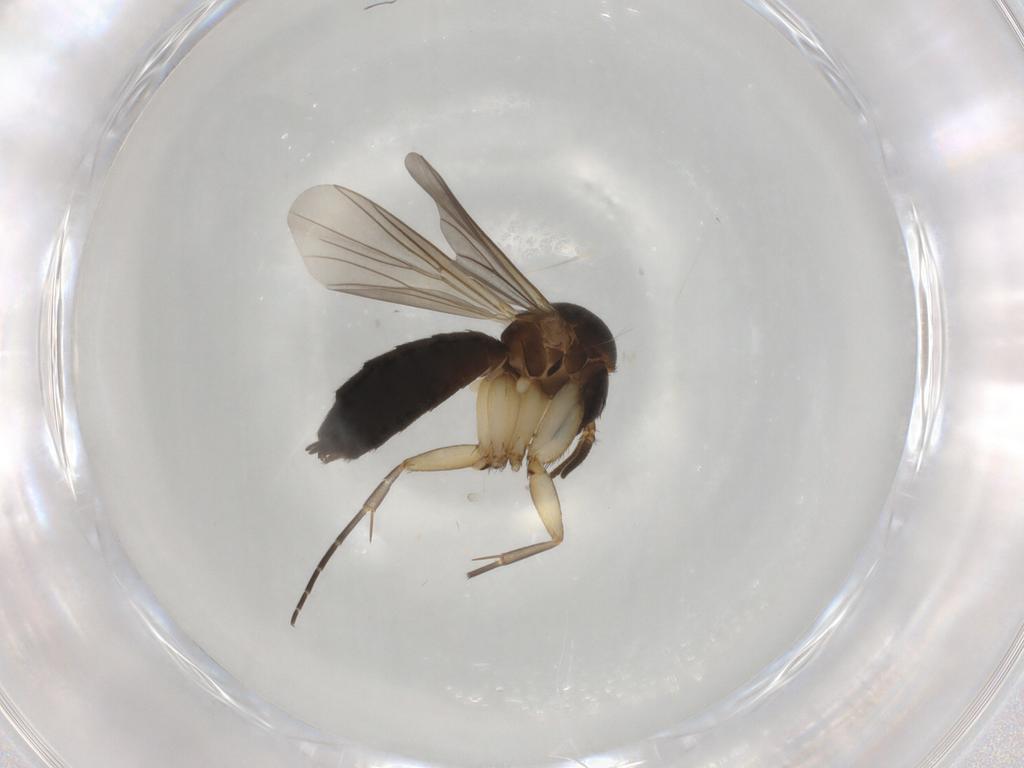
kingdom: Animalia
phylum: Arthropoda
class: Insecta
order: Diptera
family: Mycetophilidae
